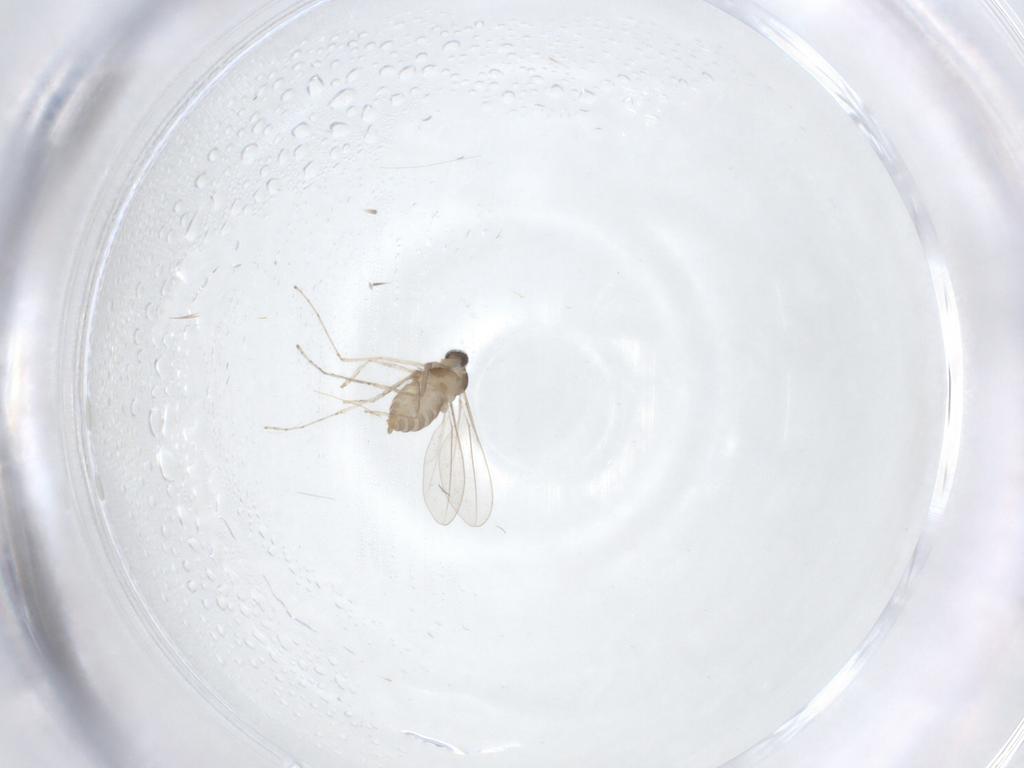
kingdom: Animalia
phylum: Arthropoda
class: Insecta
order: Diptera
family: Cecidomyiidae
